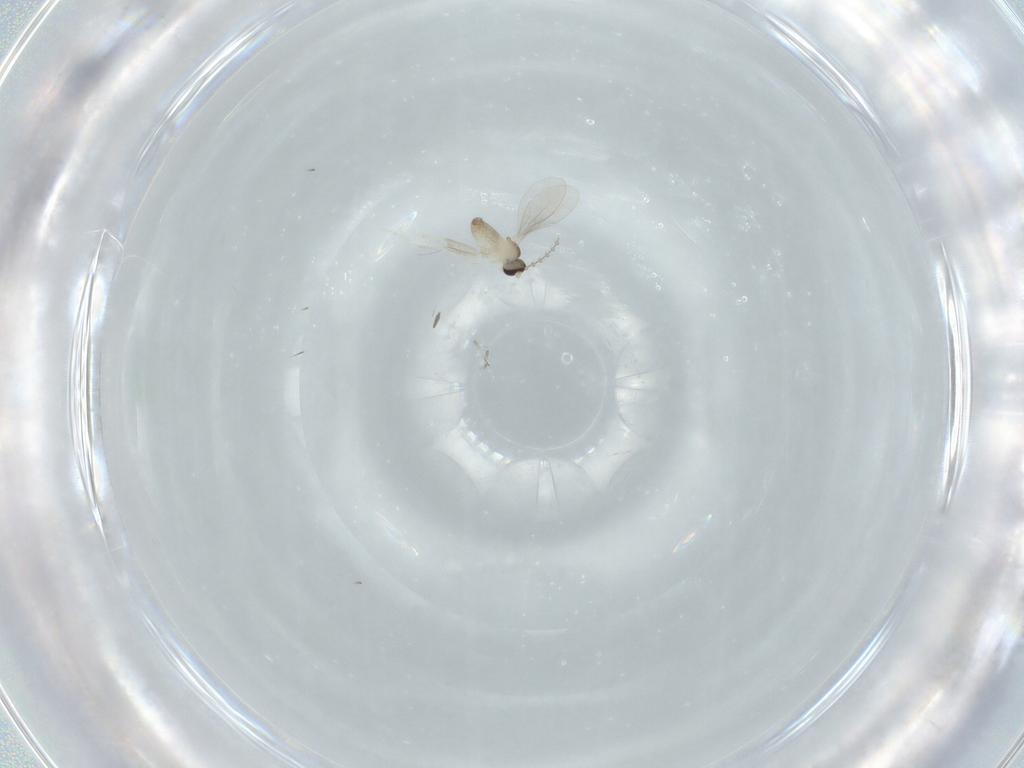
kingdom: Animalia
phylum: Arthropoda
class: Insecta
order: Diptera
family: Cecidomyiidae
